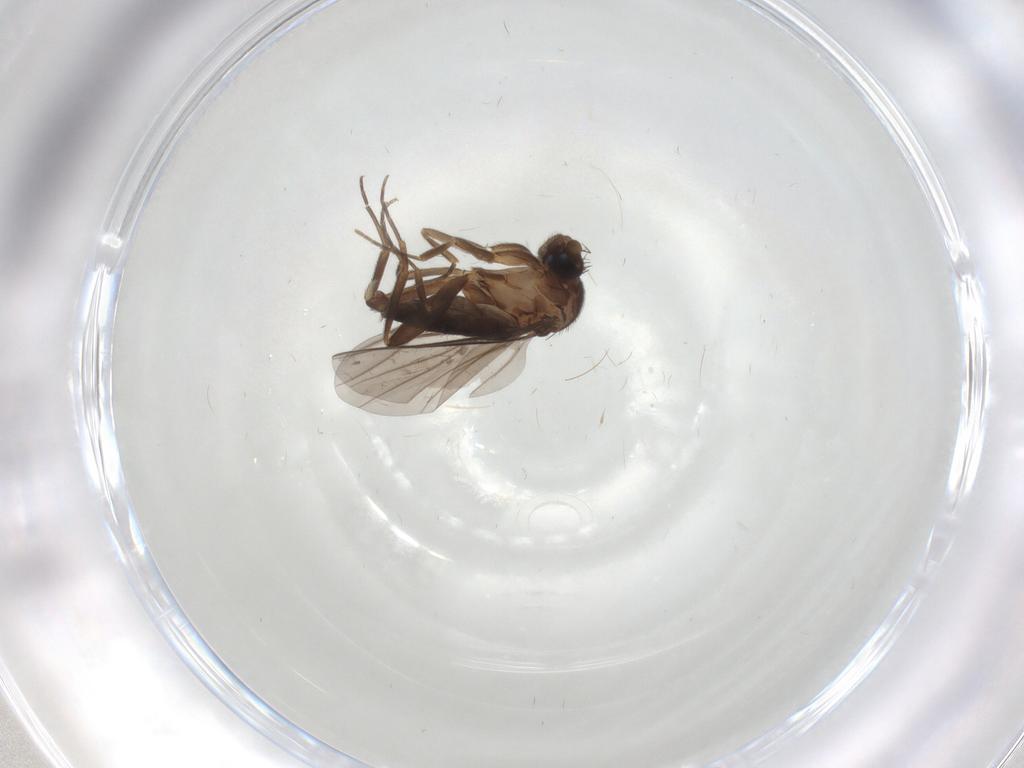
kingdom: Animalia
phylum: Arthropoda
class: Insecta
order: Diptera
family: Phoridae
